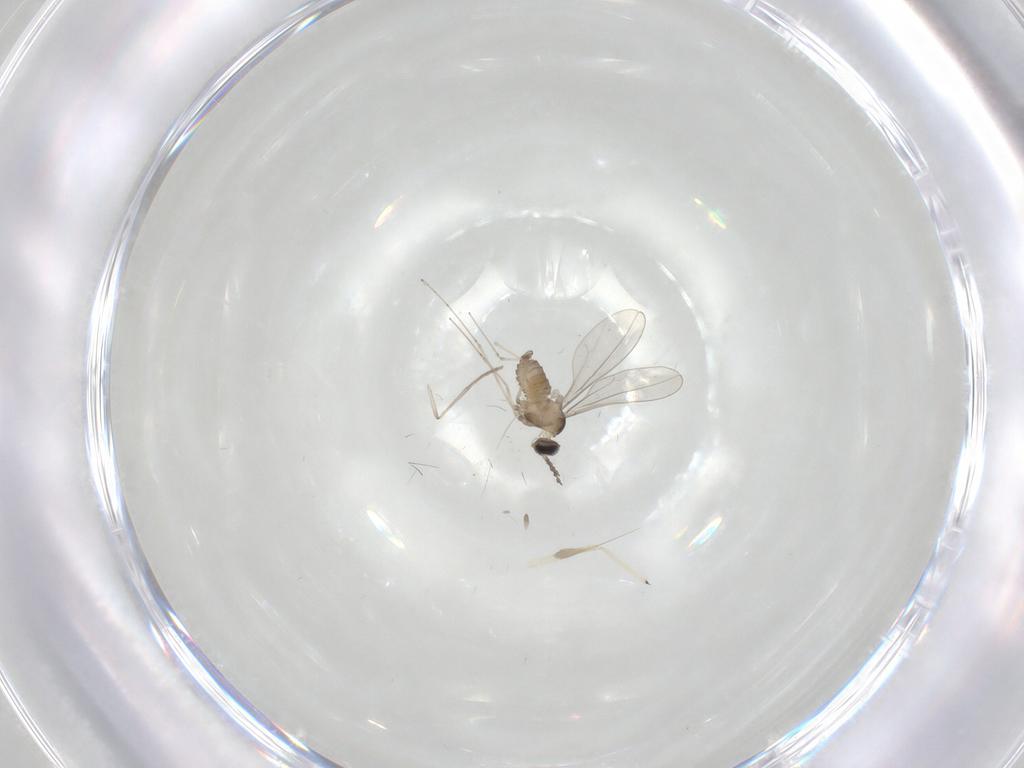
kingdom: Animalia
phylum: Arthropoda
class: Insecta
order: Diptera
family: Cecidomyiidae
